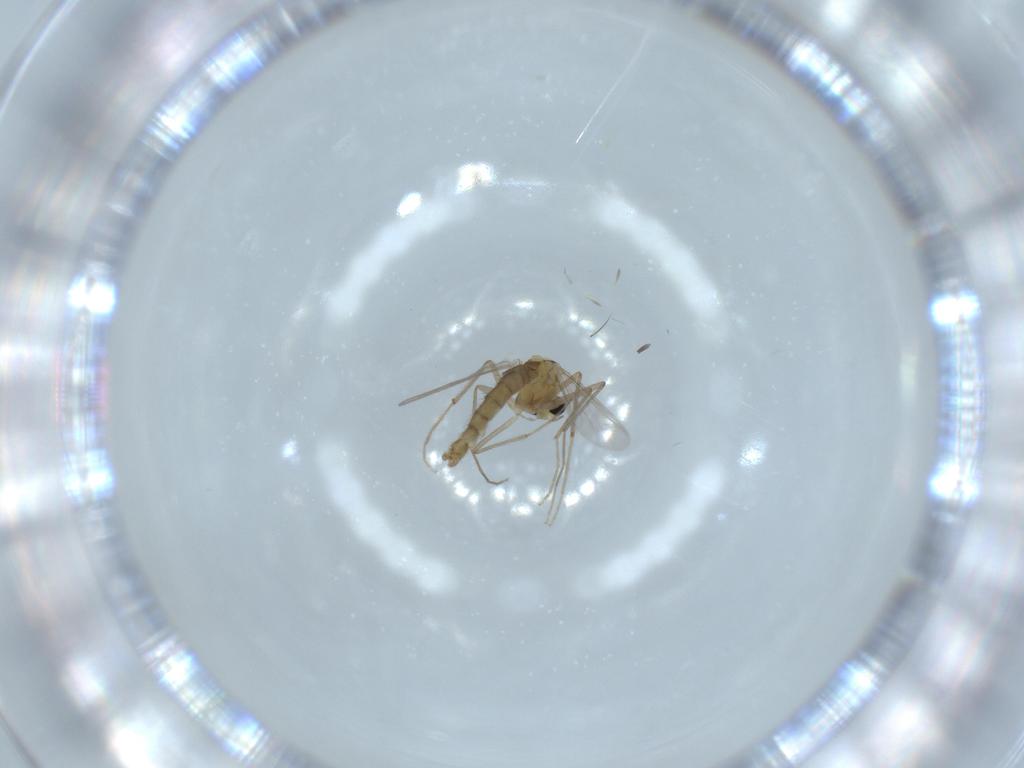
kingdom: Animalia
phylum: Arthropoda
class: Insecta
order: Diptera
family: Chironomidae
